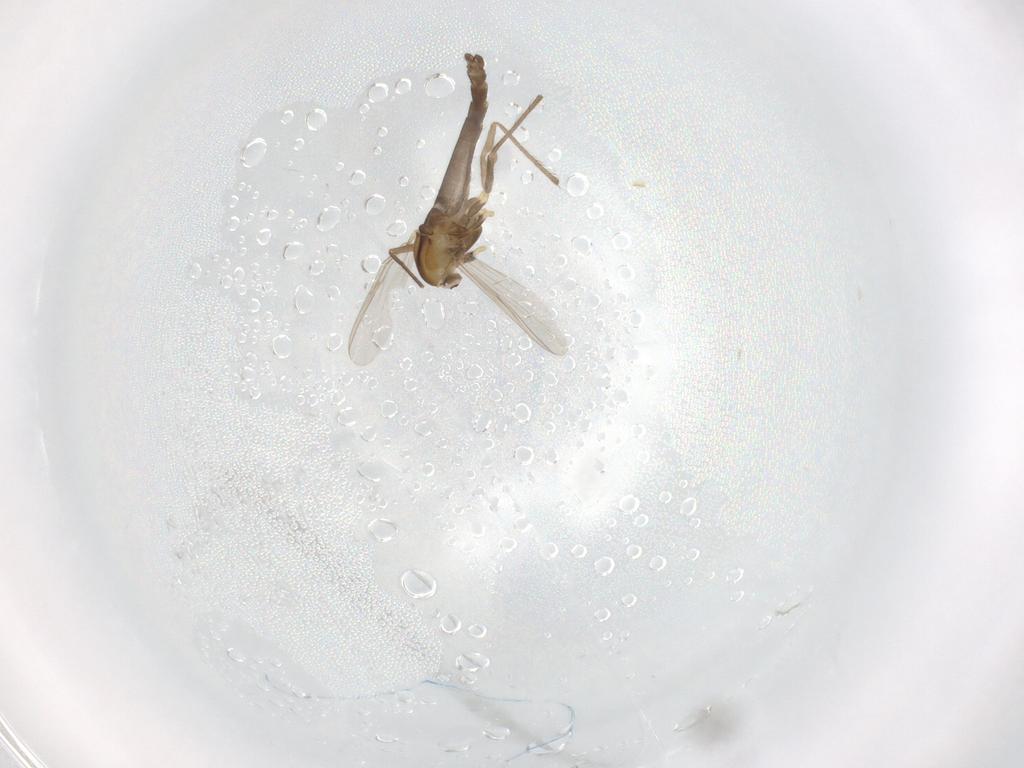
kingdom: Animalia
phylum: Arthropoda
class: Insecta
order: Diptera
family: Chironomidae
